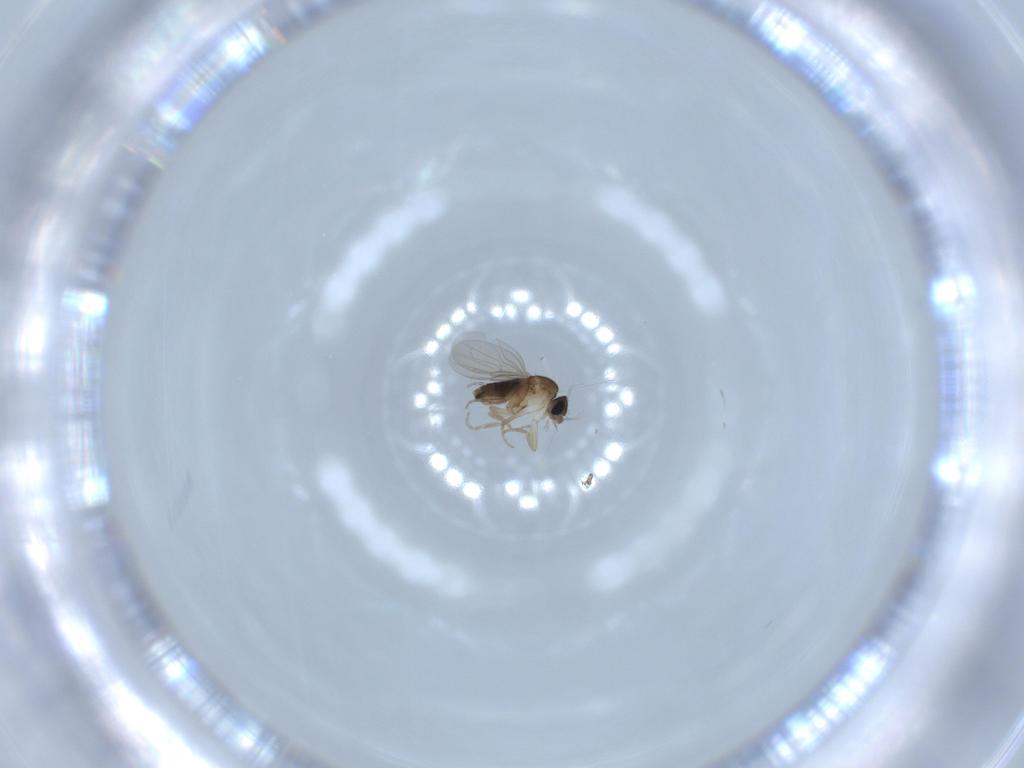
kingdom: Animalia
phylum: Arthropoda
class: Insecta
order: Diptera
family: Phoridae
